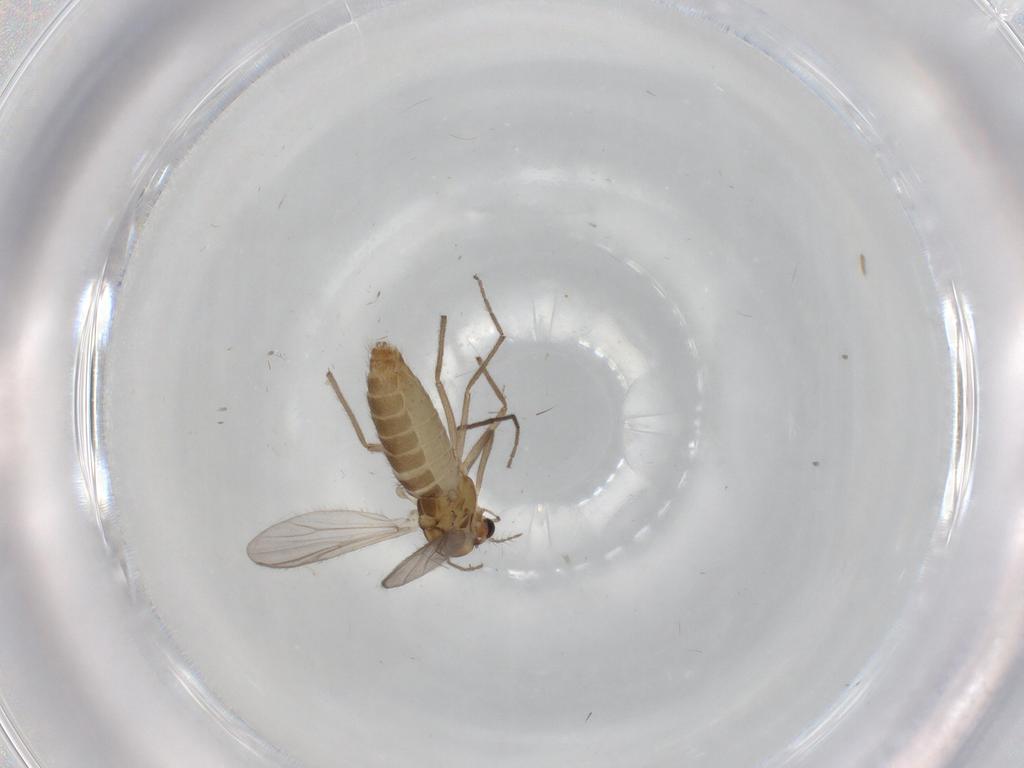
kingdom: Animalia
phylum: Arthropoda
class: Insecta
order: Diptera
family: Chironomidae
